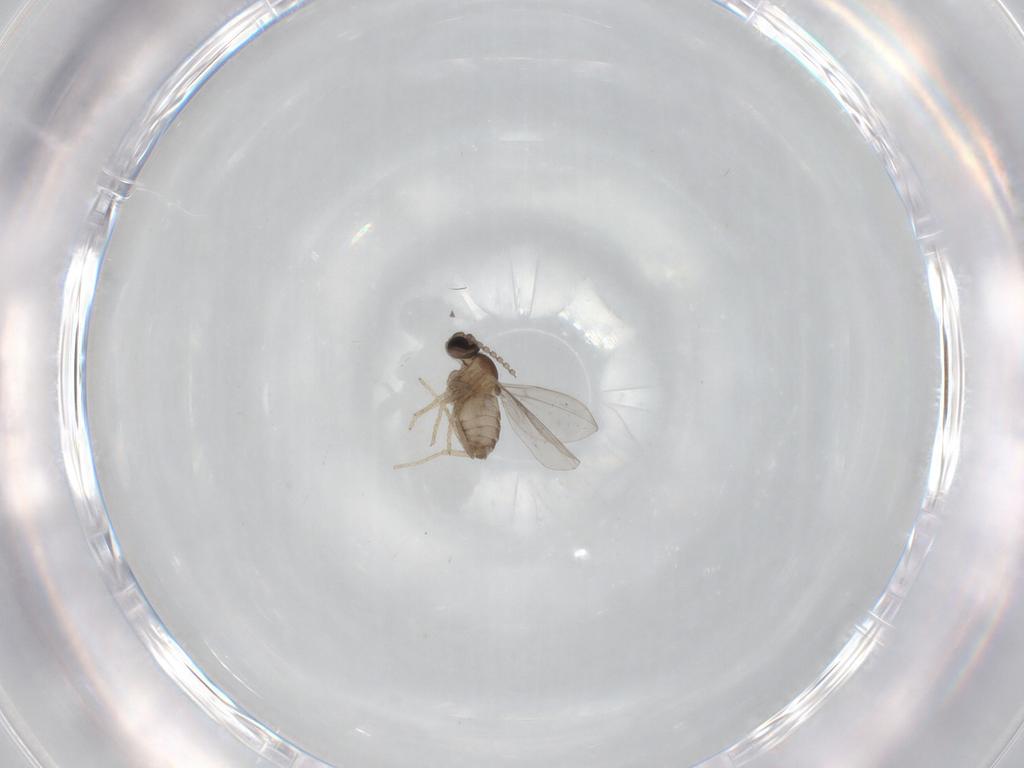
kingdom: Animalia
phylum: Arthropoda
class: Insecta
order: Diptera
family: Cecidomyiidae
